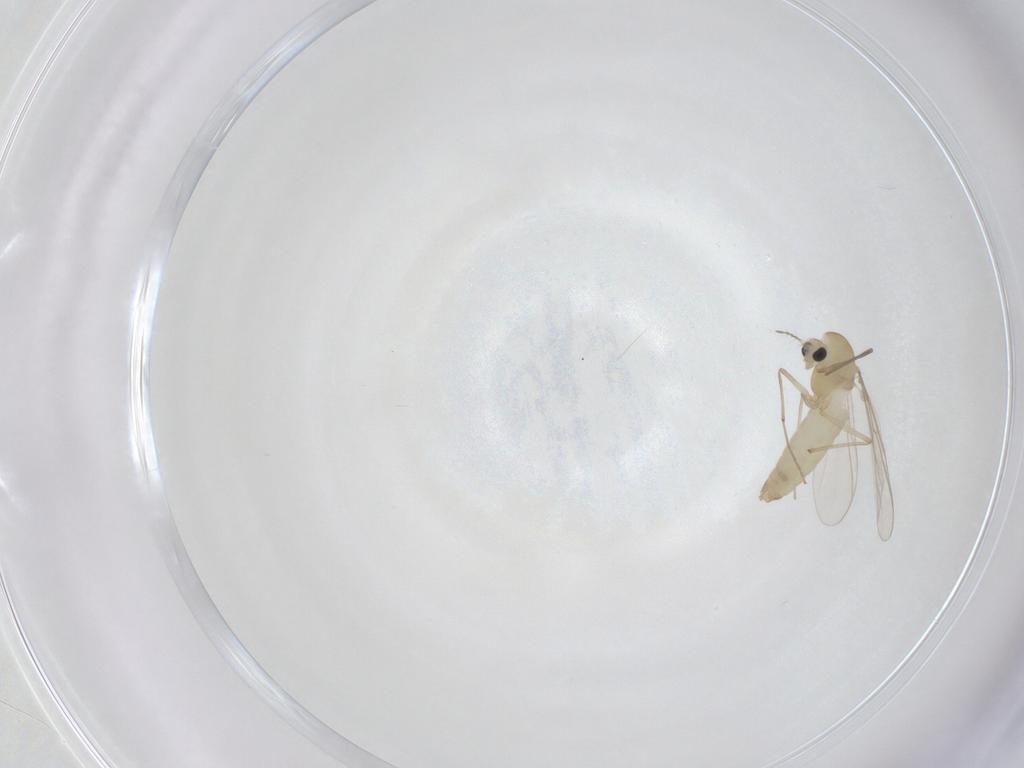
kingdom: Animalia
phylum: Arthropoda
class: Insecta
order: Diptera
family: Chironomidae
